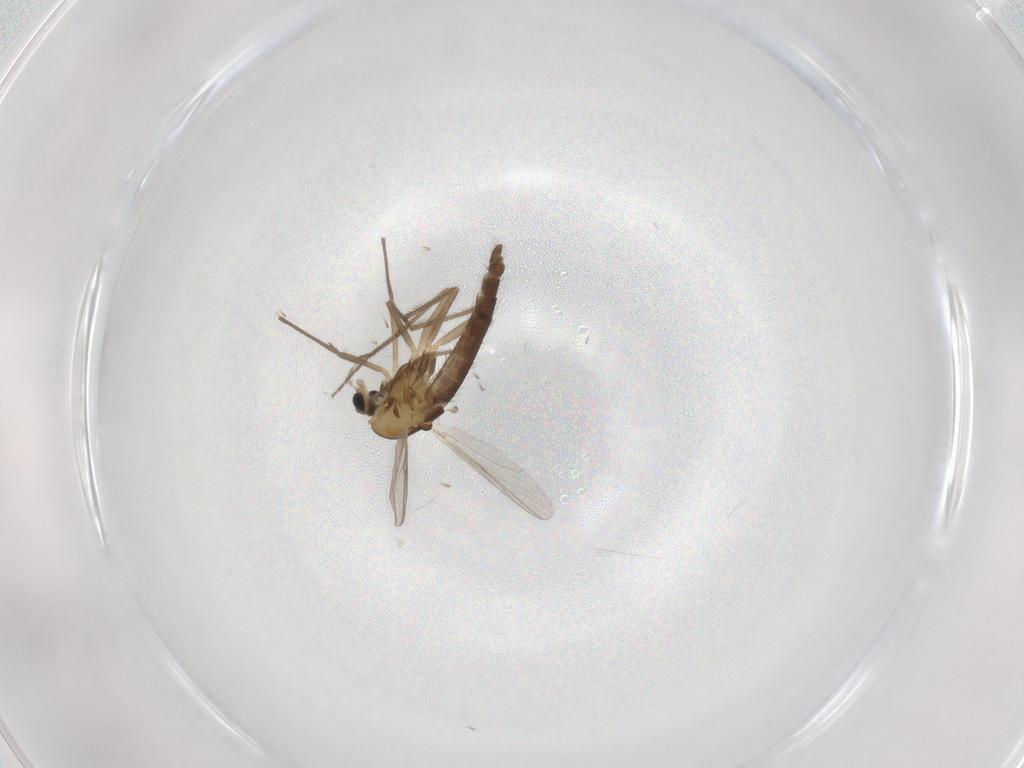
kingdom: Animalia
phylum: Arthropoda
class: Insecta
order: Diptera
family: Chironomidae
